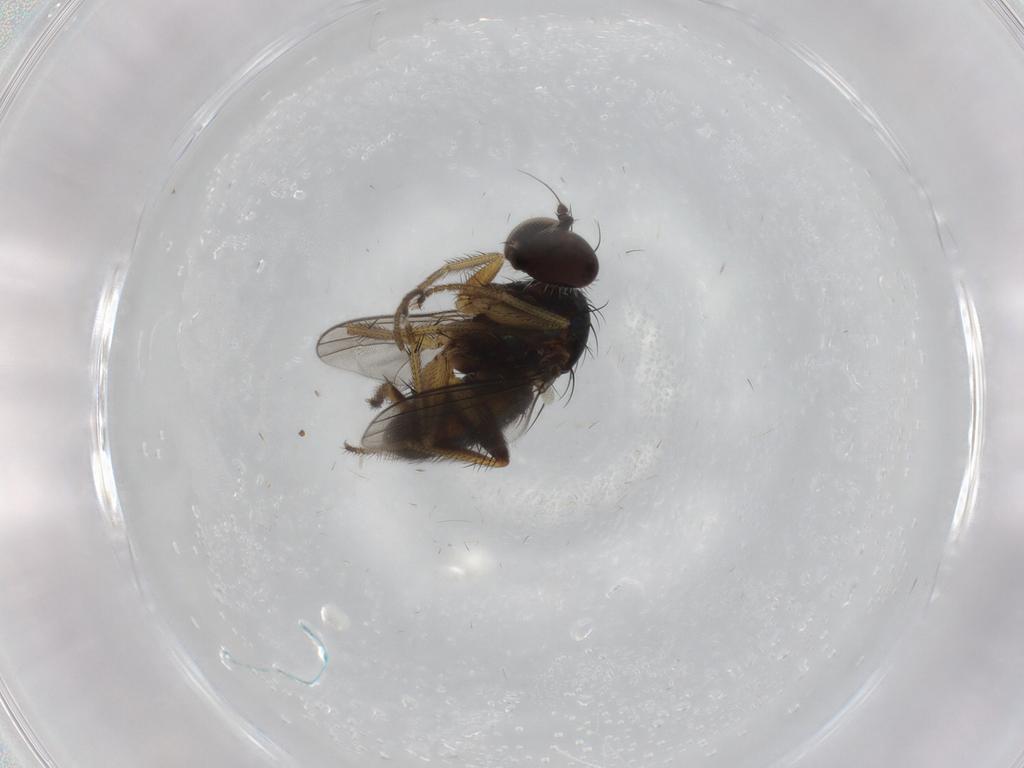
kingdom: Animalia
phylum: Arthropoda
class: Insecta
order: Diptera
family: Dolichopodidae
